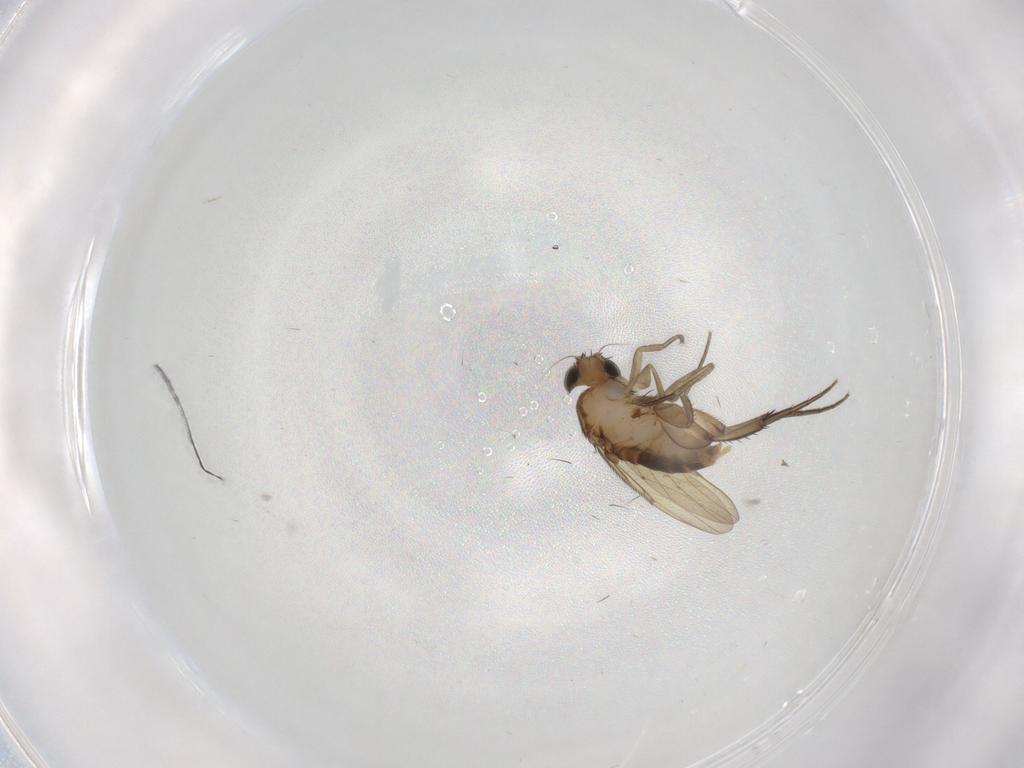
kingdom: Animalia
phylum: Arthropoda
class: Insecta
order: Diptera
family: Phoridae
